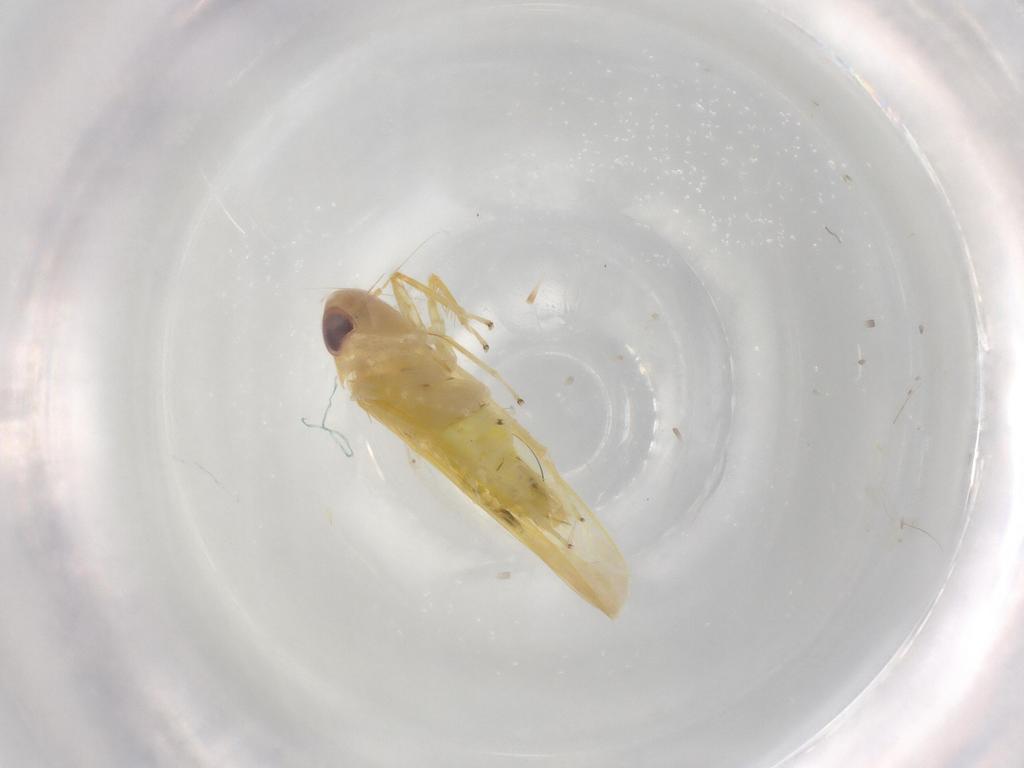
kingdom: Animalia
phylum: Arthropoda
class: Insecta
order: Hemiptera
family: Cicadellidae
